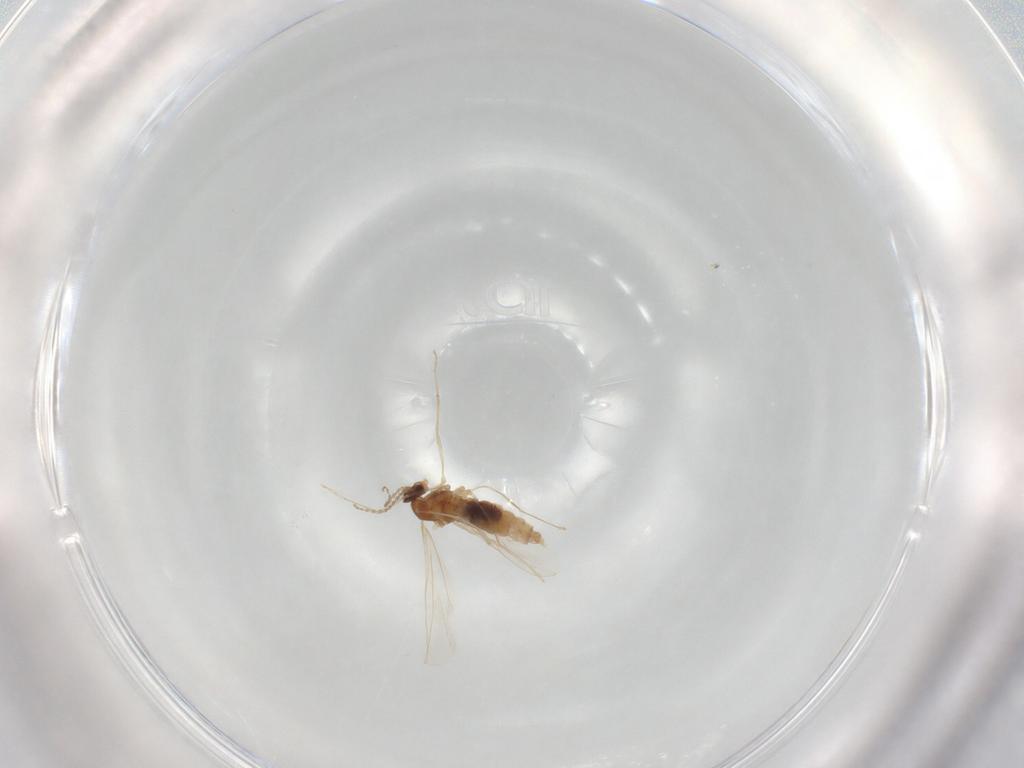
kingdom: Animalia
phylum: Arthropoda
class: Insecta
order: Diptera
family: Cecidomyiidae
